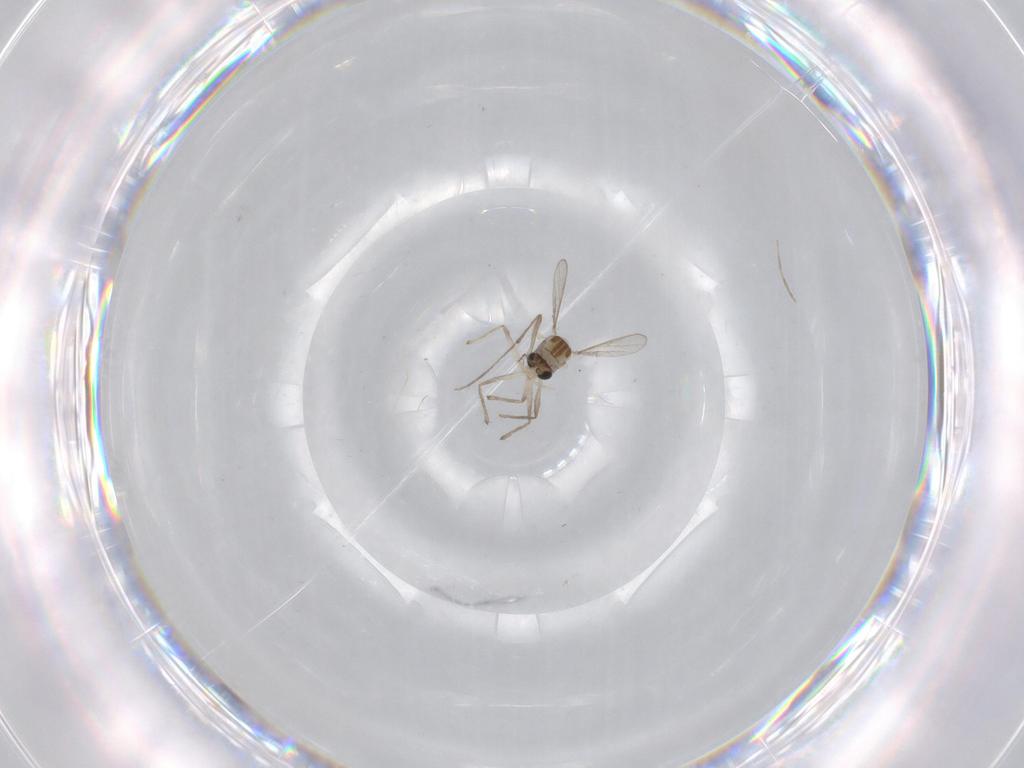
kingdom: Animalia
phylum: Arthropoda
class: Insecta
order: Diptera
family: Chironomidae
